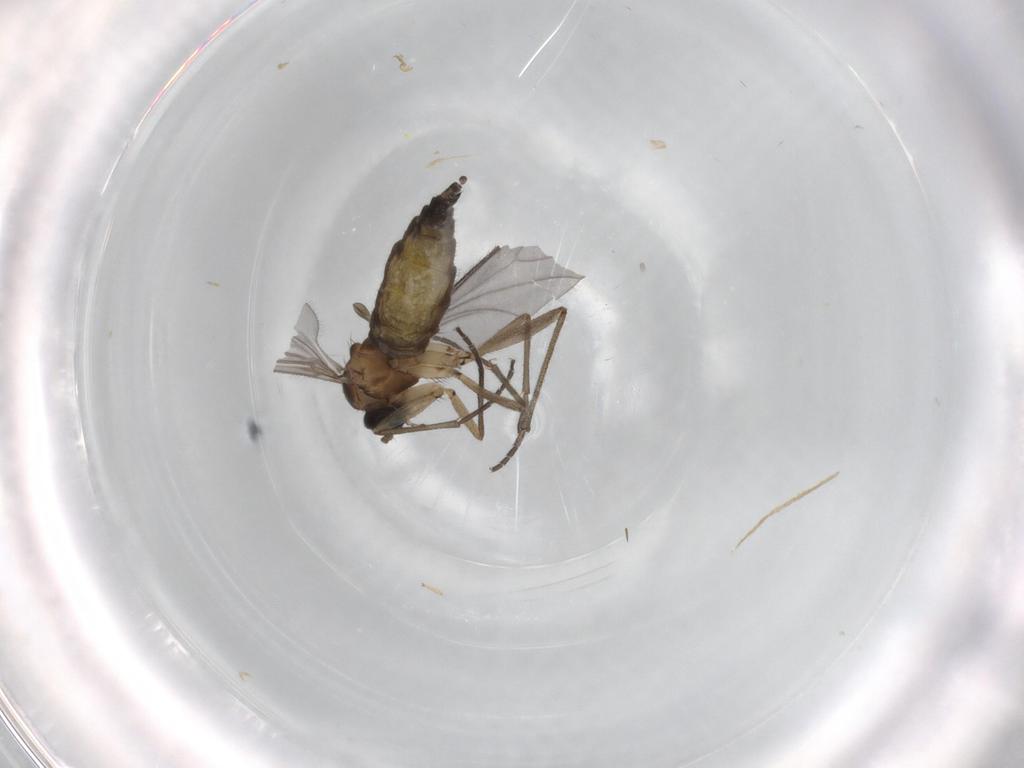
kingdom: Animalia
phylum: Arthropoda
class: Insecta
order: Diptera
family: Sciaridae
